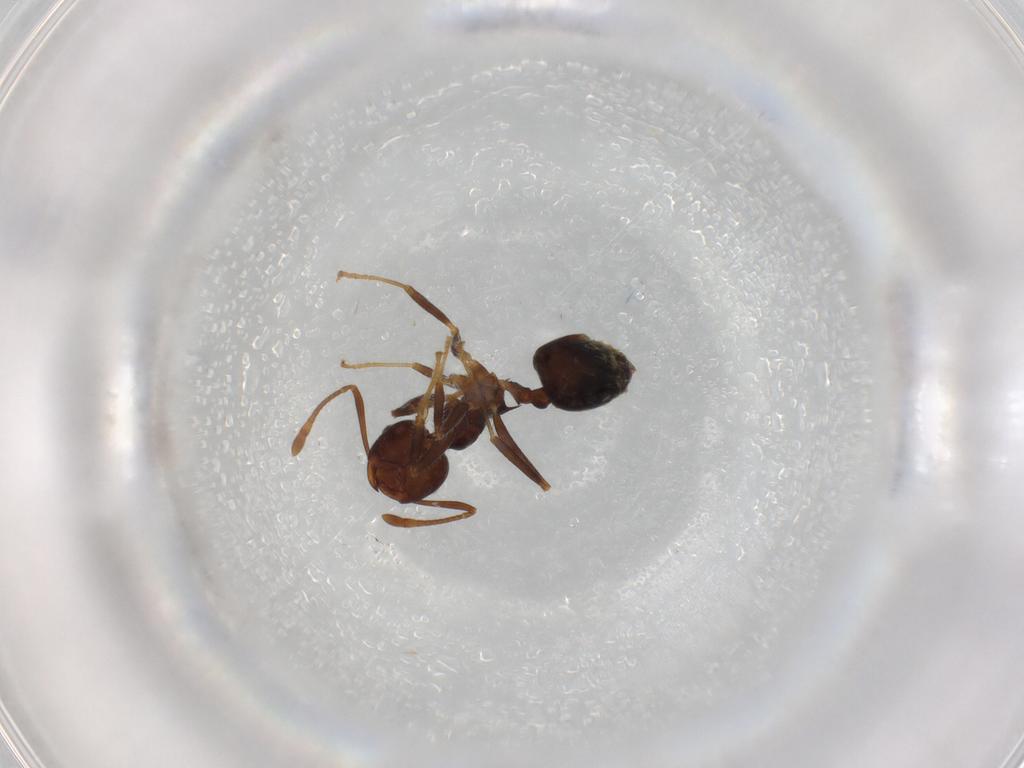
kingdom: Animalia
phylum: Arthropoda
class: Insecta
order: Hymenoptera
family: Formicidae
